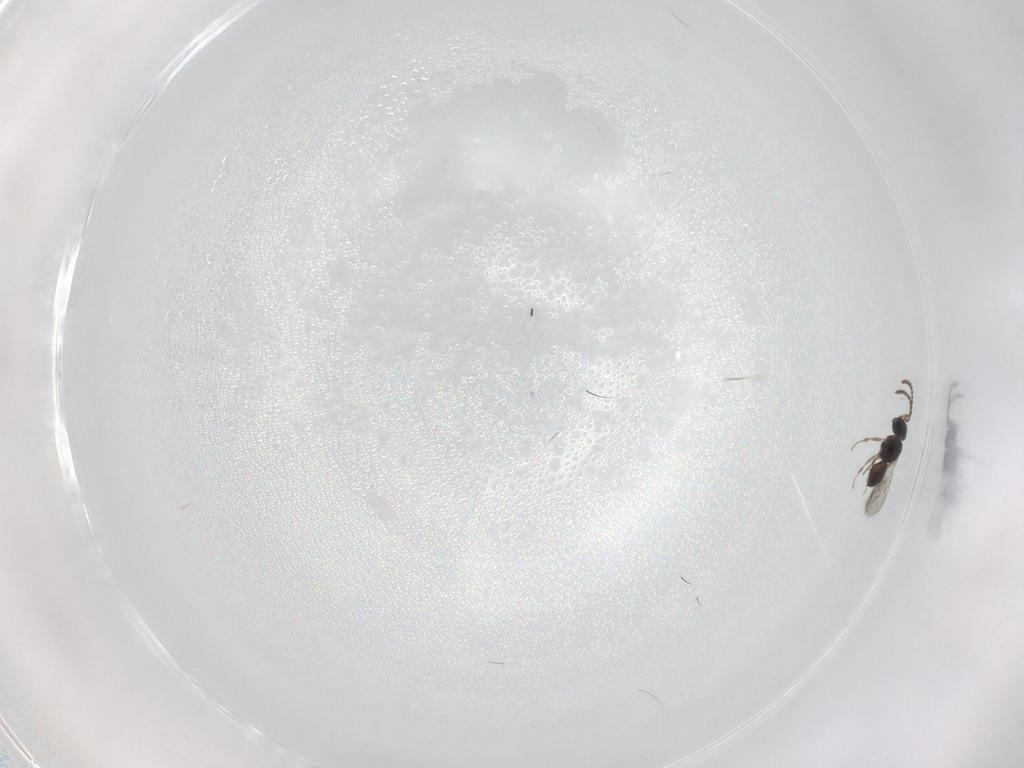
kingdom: Animalia
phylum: Arthropoda
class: Insecta
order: Hymenoptera
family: Scelionidae
